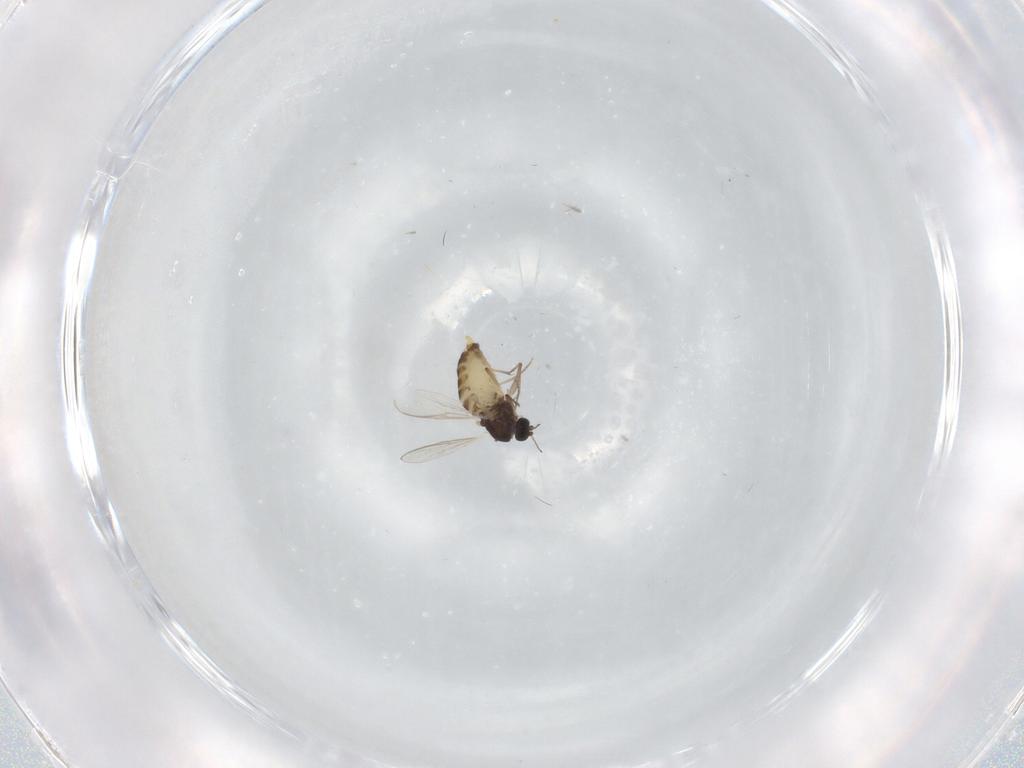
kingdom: Animalia
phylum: Arthropoda
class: Insecta
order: Diptera
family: Chironomidae
